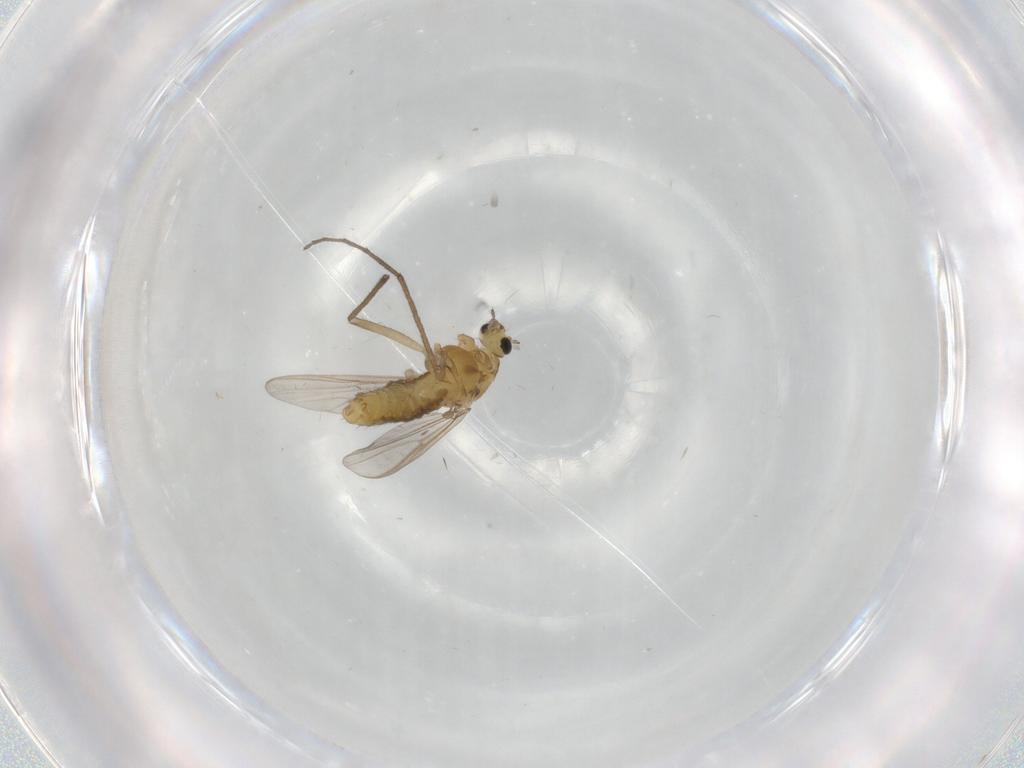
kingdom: Animalia
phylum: Arthropoda
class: Insecta
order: Diptera
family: Chironomidae
